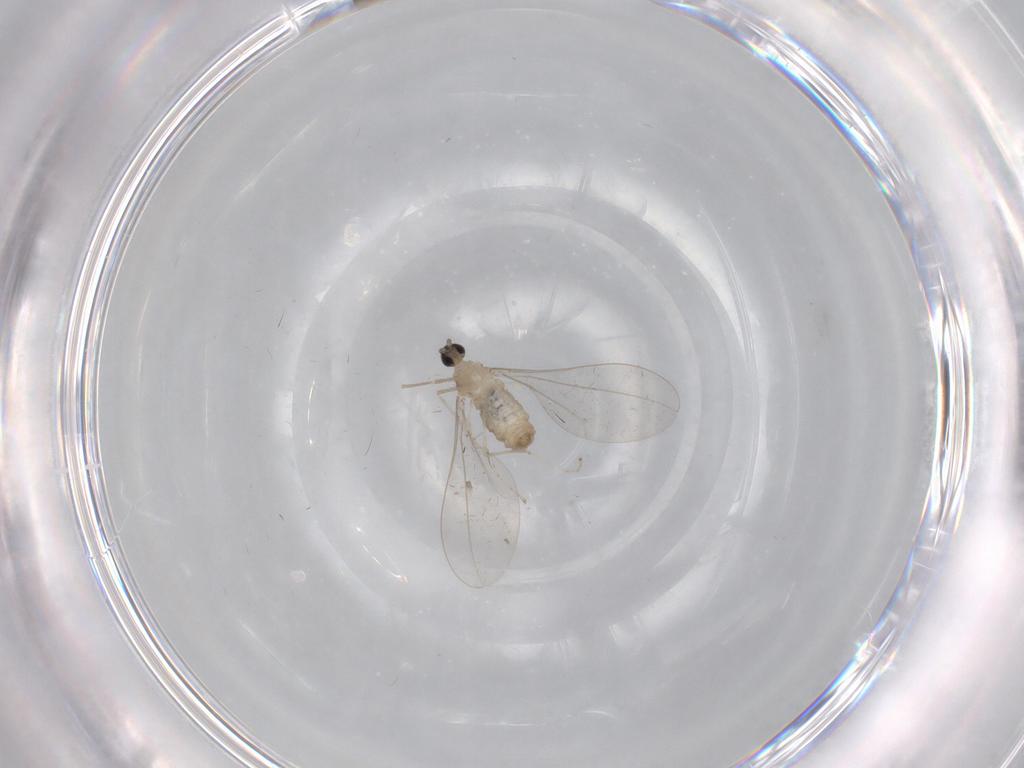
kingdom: Animalia
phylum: Arthropoda
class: Insecta
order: Diptera
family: Cecidomyiidae
